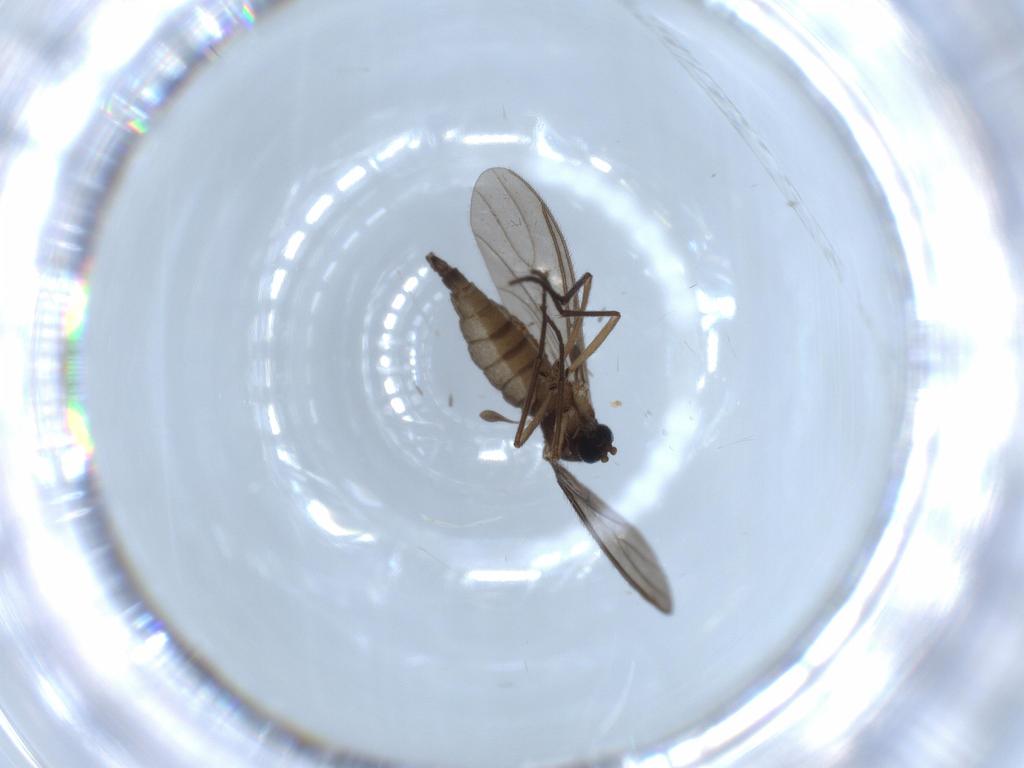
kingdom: Animalia
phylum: Arthropoda
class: Insecta
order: Diptera
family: Sciaridae
